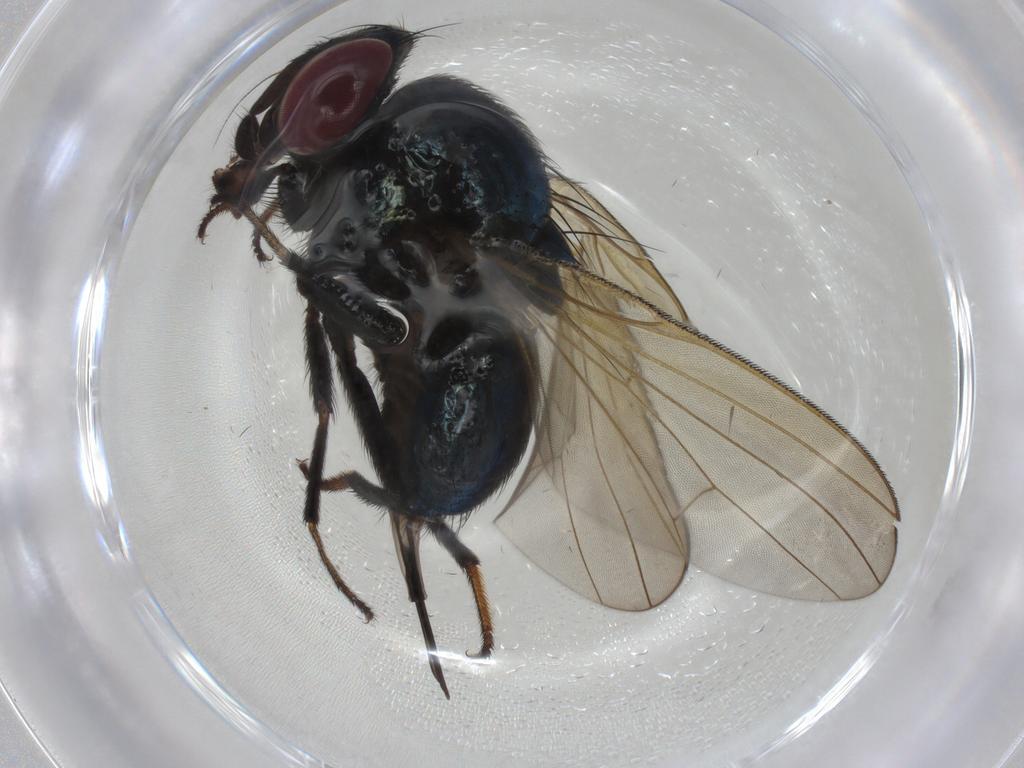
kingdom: Animalia
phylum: Arthropoda
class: Insecta
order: Diptera
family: Lonchaeidae
